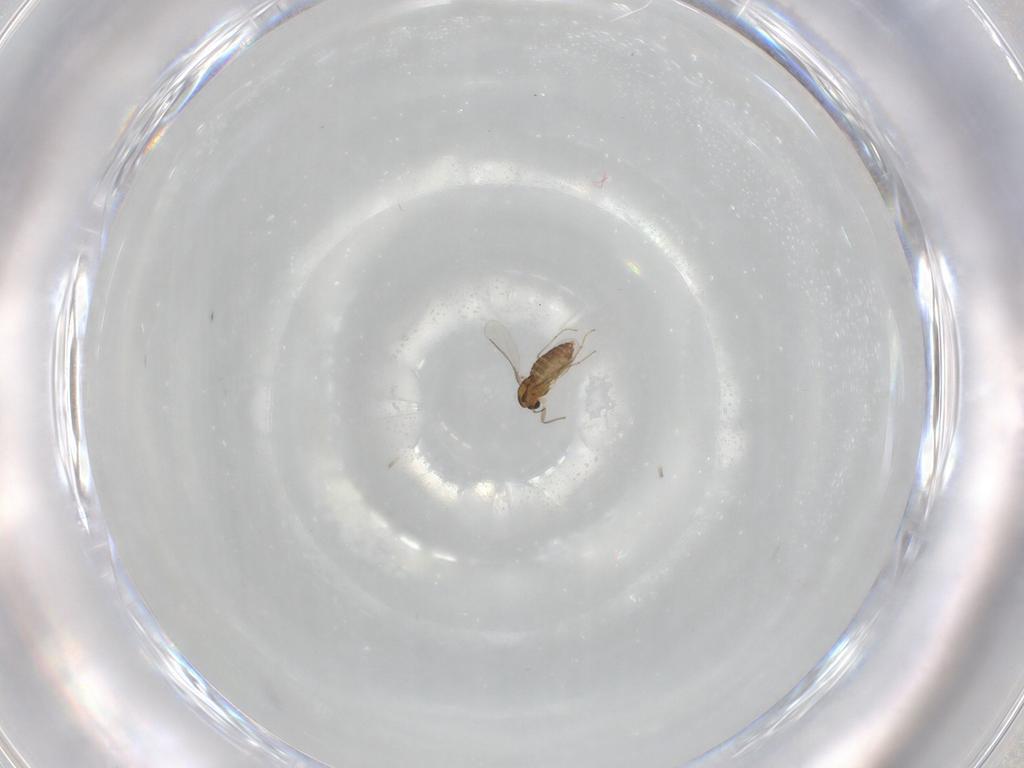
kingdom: Animalia
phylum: Arthropoda
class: Insecta
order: Diptera
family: Chironomidae
